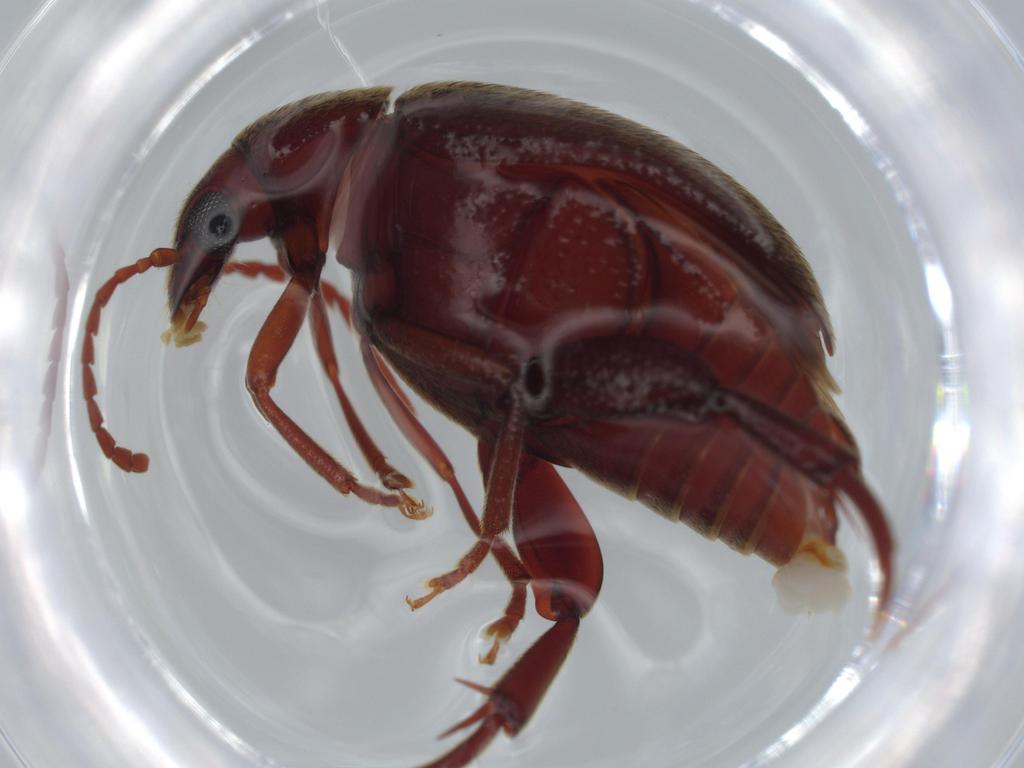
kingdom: Animalia
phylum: Arthropoda
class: Insecta
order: Coleoptera
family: Chrysomelidae
